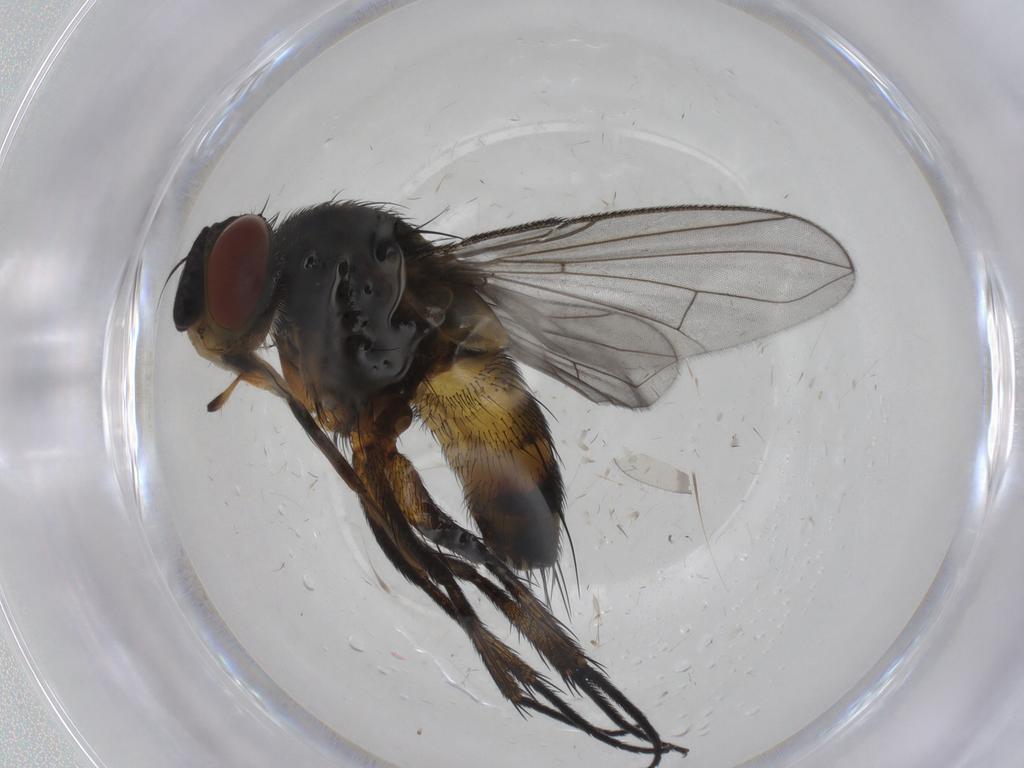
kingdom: Animalia
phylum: Arthropoda
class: Insecta
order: Diptera
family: Tachinidae
